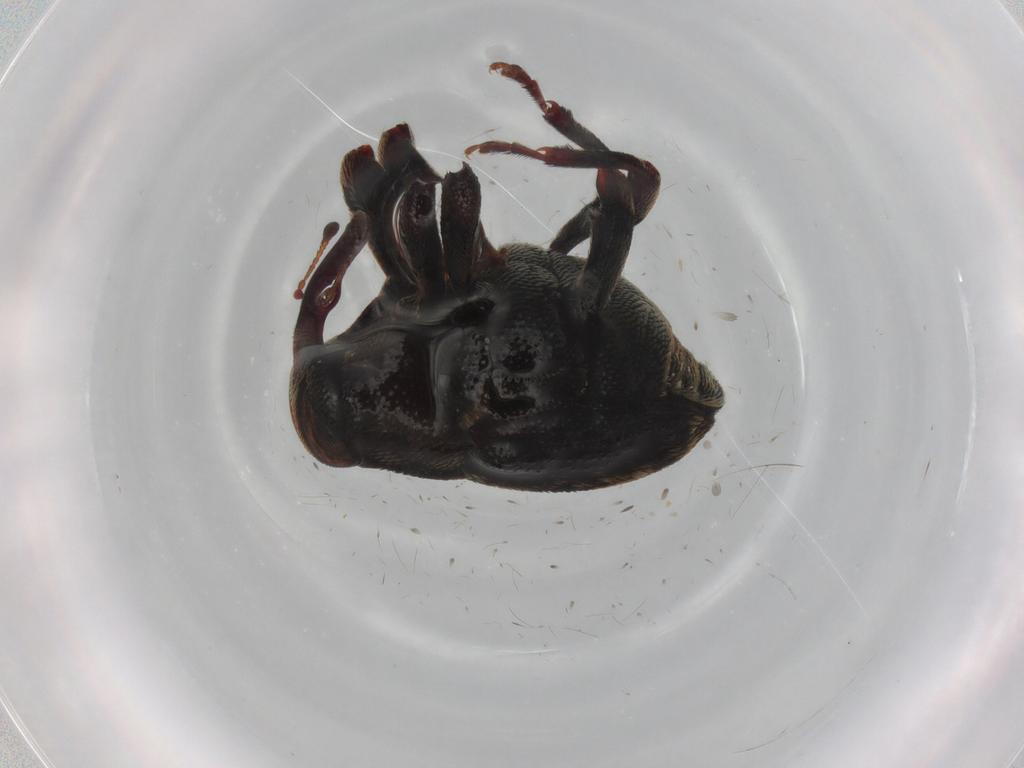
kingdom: Animalia
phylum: Arthropoda
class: Insecta
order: Coleoptera
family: Curculionidae
